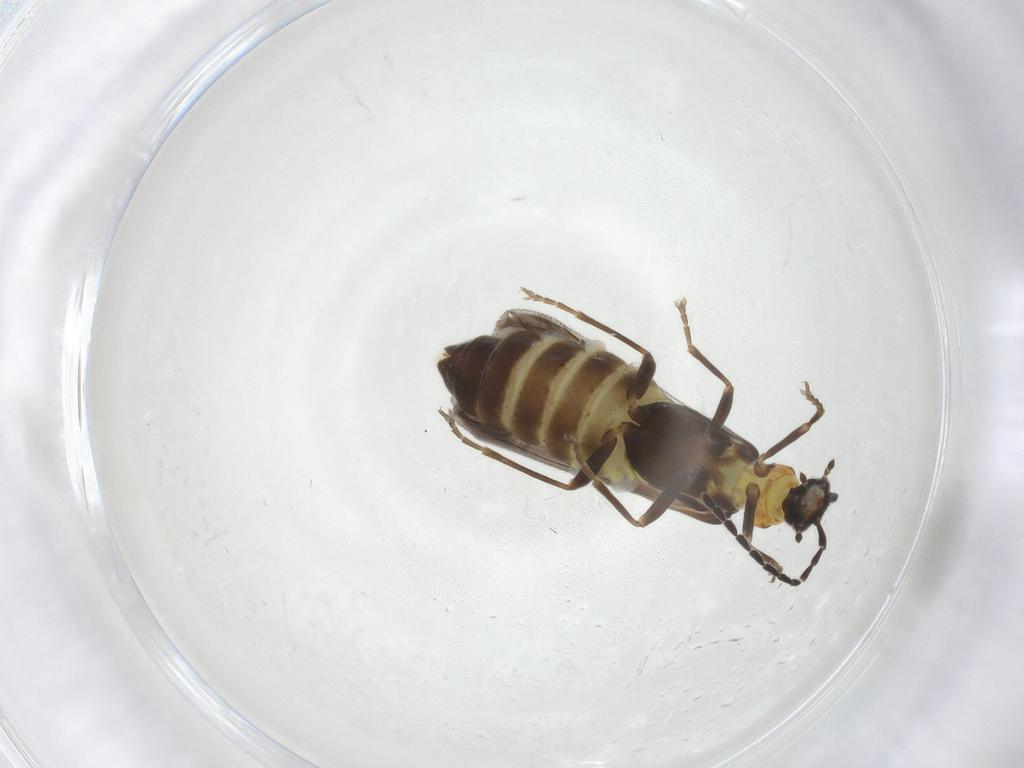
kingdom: Animalia
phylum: Arthropoda
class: Insecta
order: Coleoptera
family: Cantharidae
